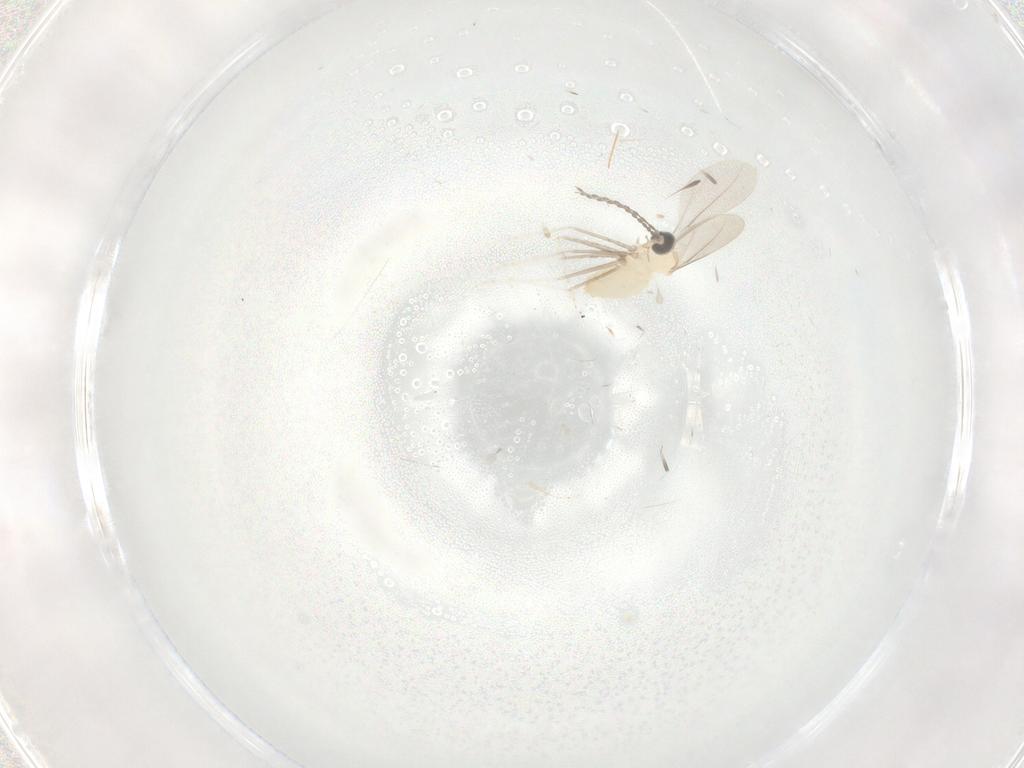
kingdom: Animalia
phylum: Arthropoda
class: Insecta
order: Diptera
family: Cecidomyiidae
